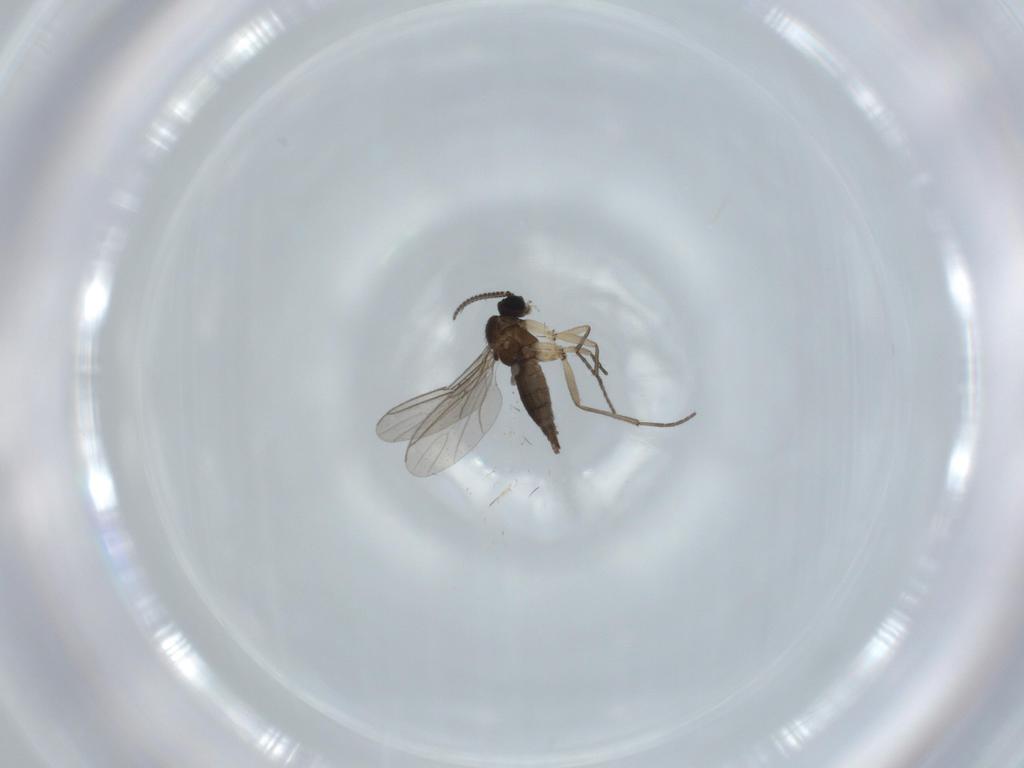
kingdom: Animalia
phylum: Arthropoda
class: Insecta
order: Diptera
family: Sciaridae
